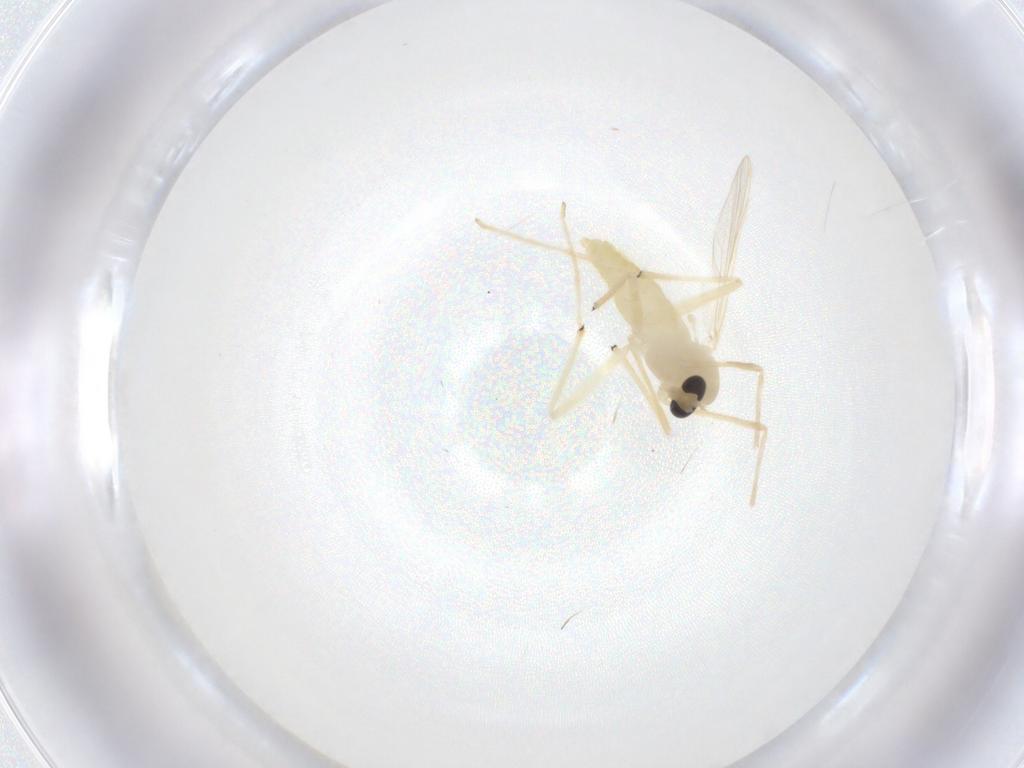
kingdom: Animalia
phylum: Arthropoda
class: Insecta
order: Diptera
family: Chironomidae
